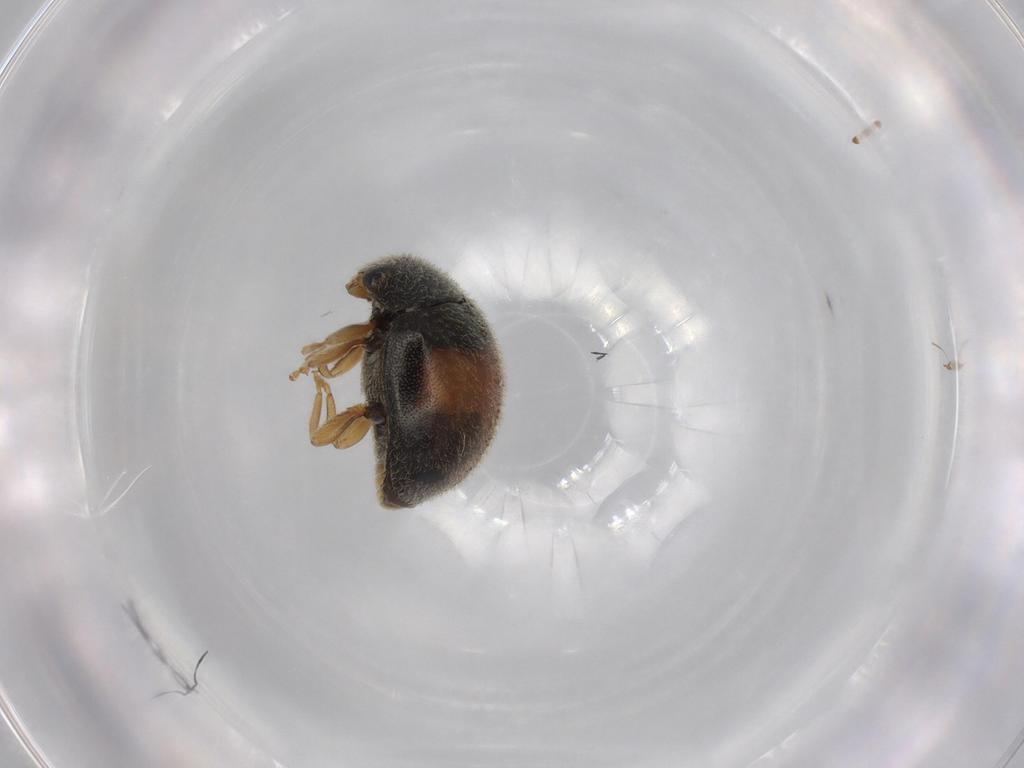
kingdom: Animalia
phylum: Arthropoda
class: Insecta
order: Coleoptera
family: Coccinellidae
